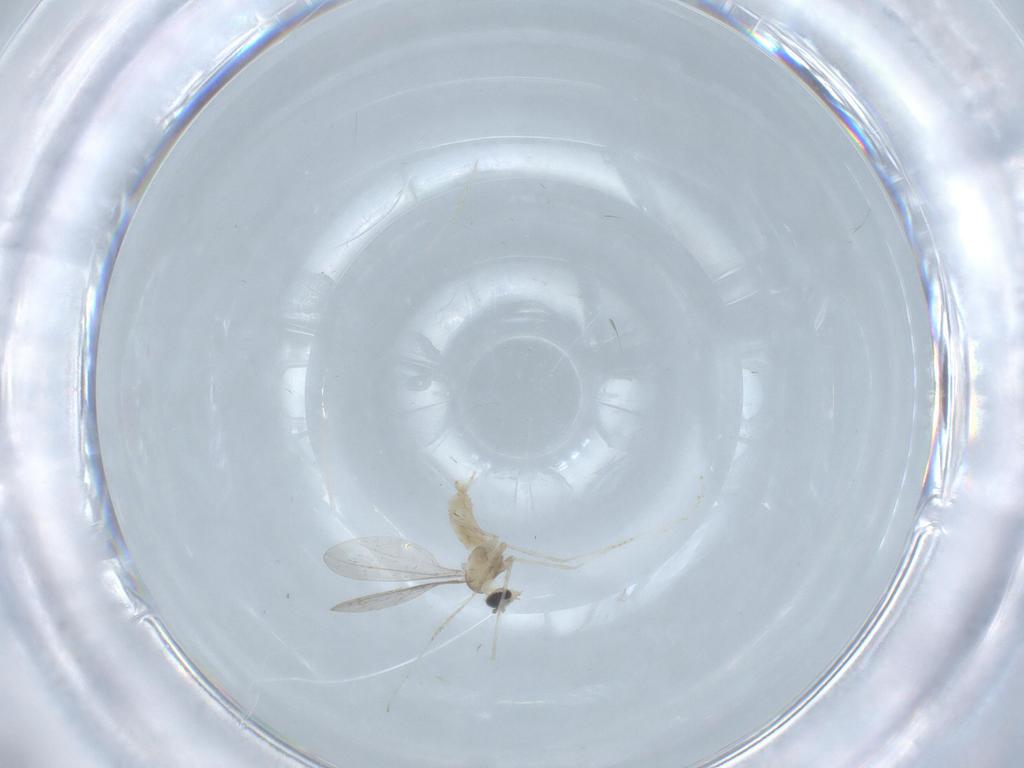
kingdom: Animalia
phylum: Arthropoda
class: Insecta
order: Diptera
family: Cecidomyiidae
